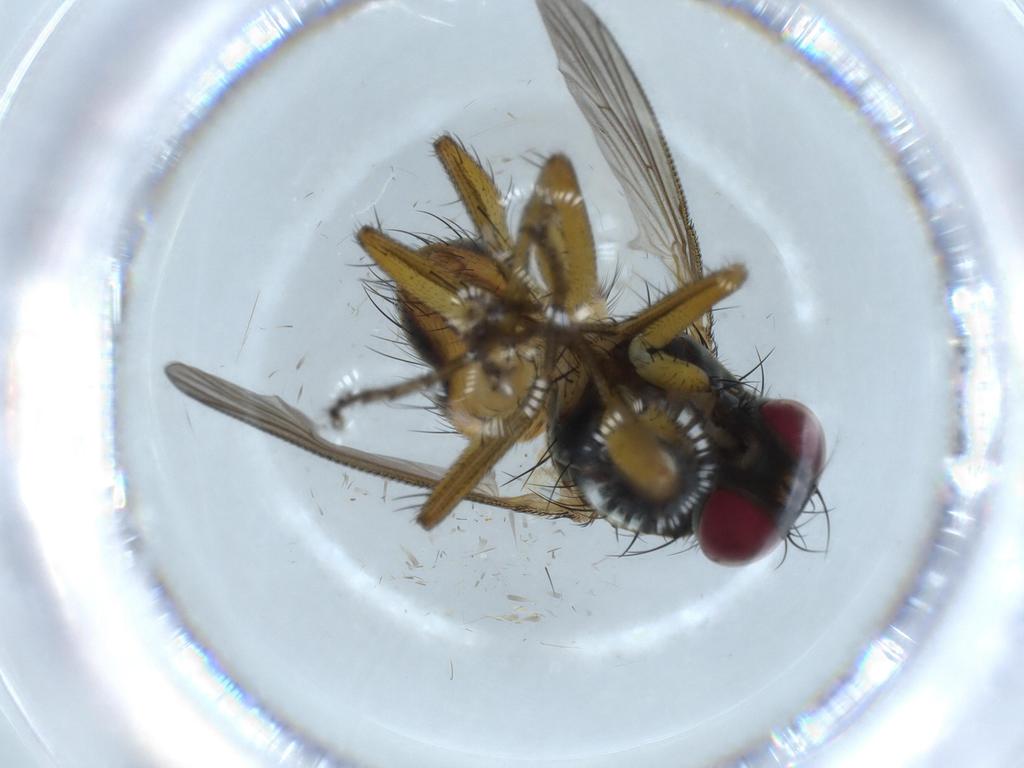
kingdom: Animalia
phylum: Arthropoda
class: Insecta
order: Diptera
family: Muscidae
